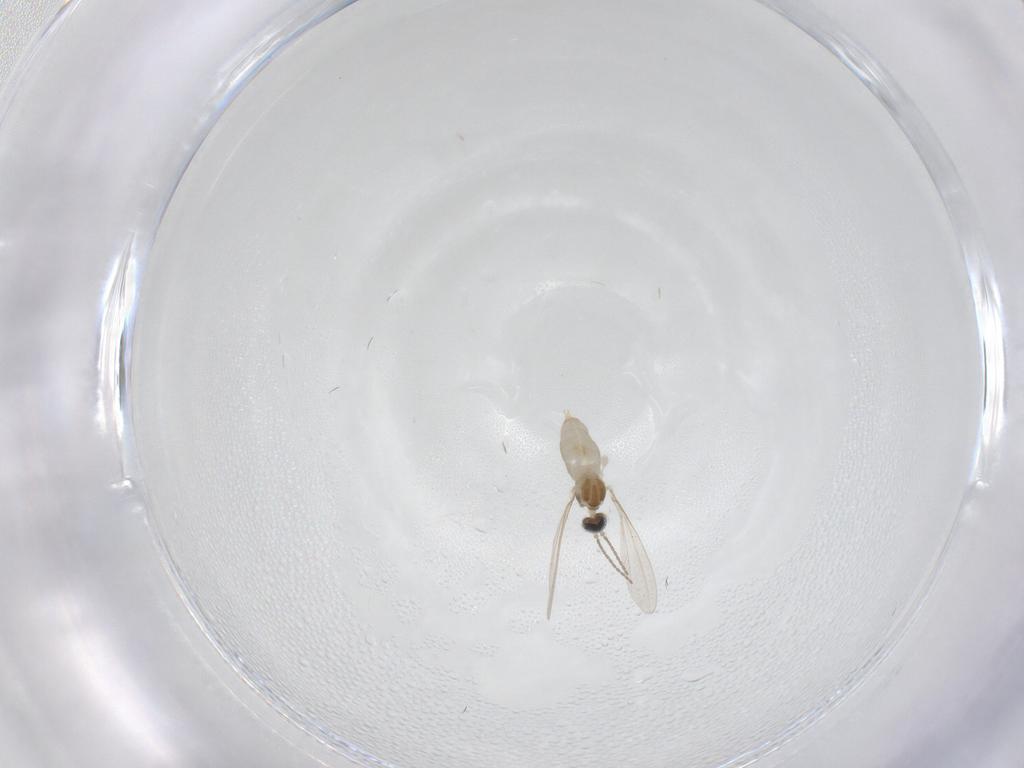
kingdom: Animalia
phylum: Arthropoda
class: Insecta
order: Diptera
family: Cecidomyiidae
